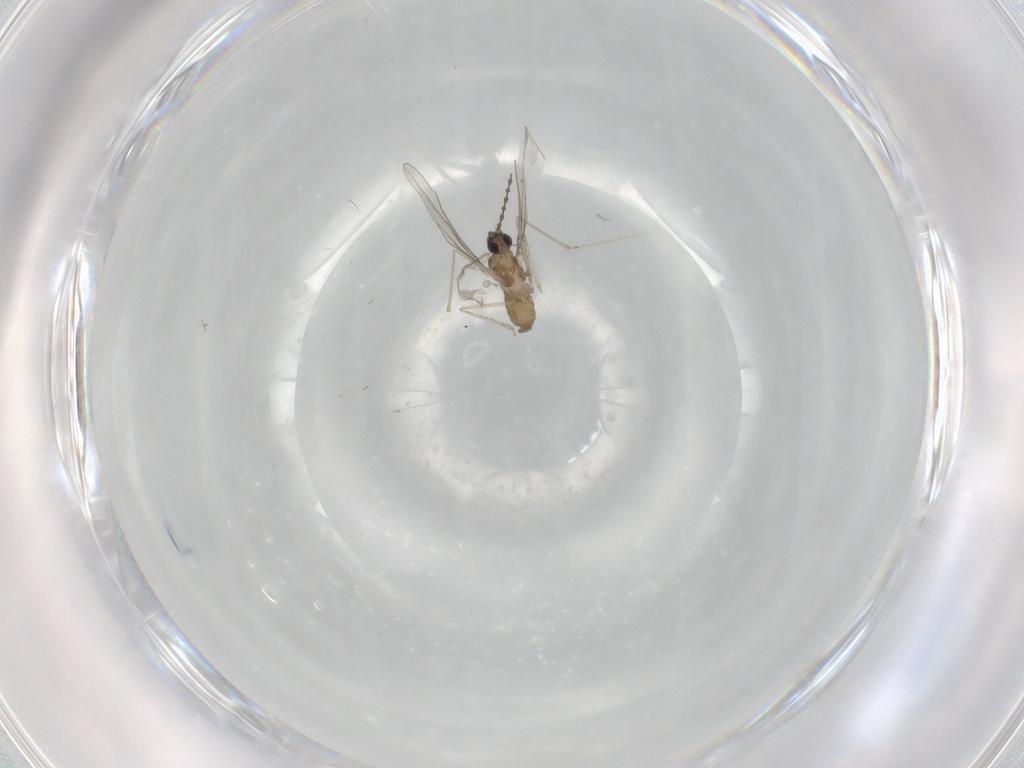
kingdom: Animalia
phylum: Arthropoda
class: Insecta
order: Diptera
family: Cecidomyiidae
